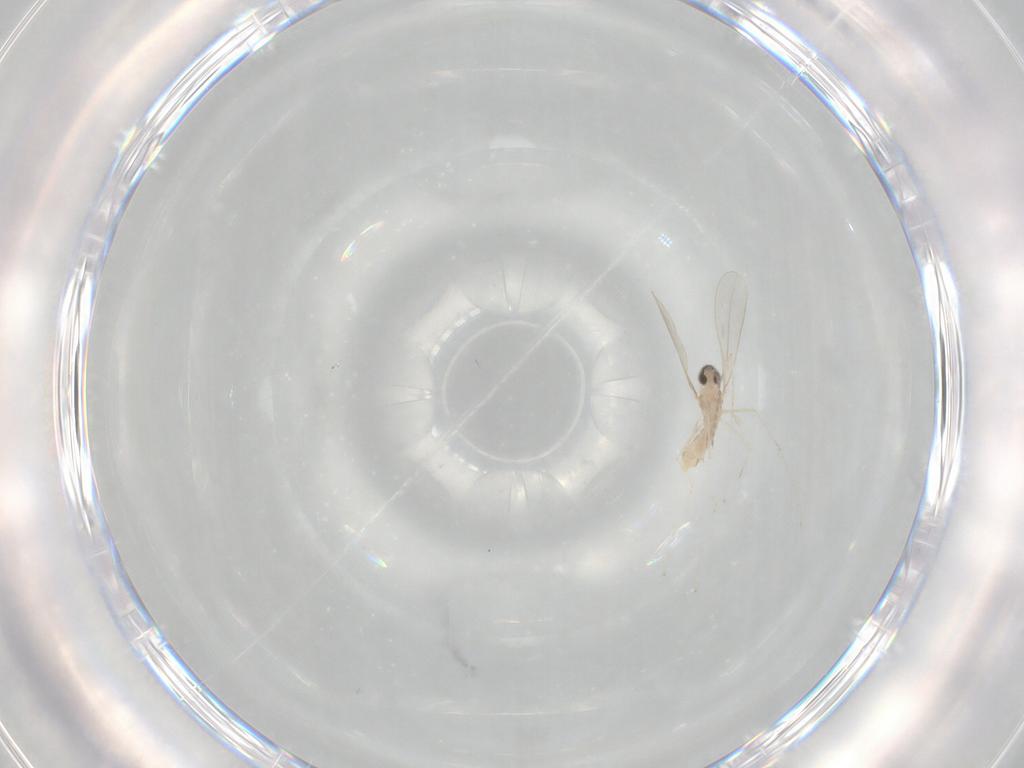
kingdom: Animalia
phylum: Arthropoda
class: Insecta
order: Diptera
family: Cecidomyiidae
